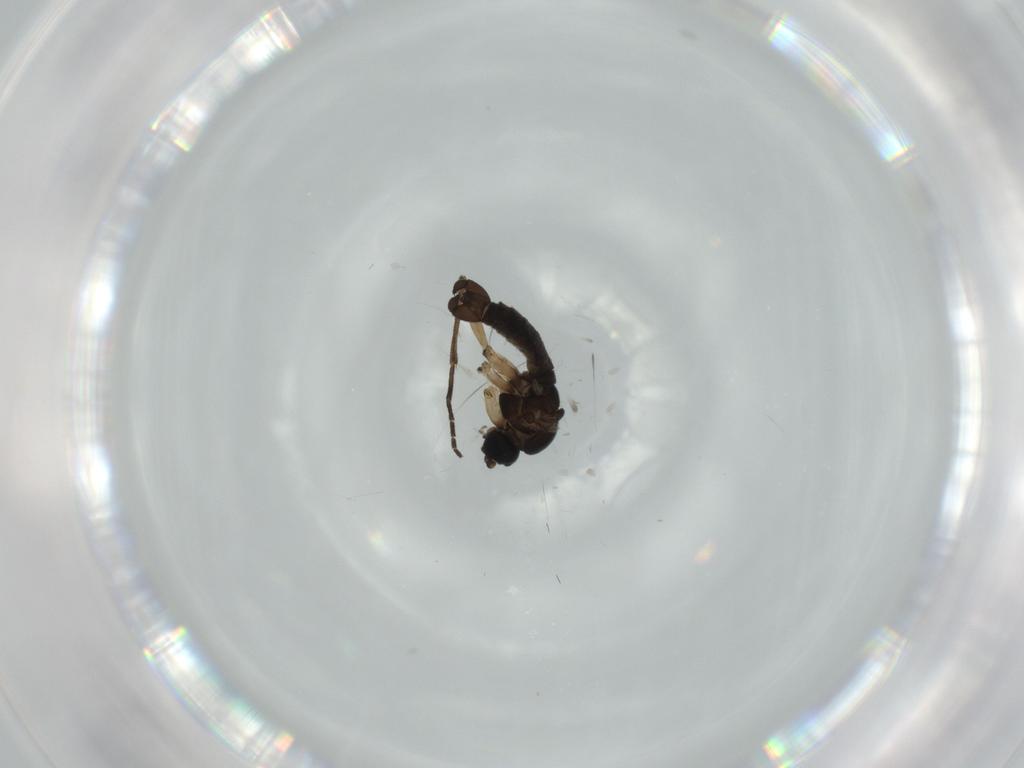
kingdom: Animalia
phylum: Arthropoda
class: Insecta
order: Diptera
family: Sciaridae
